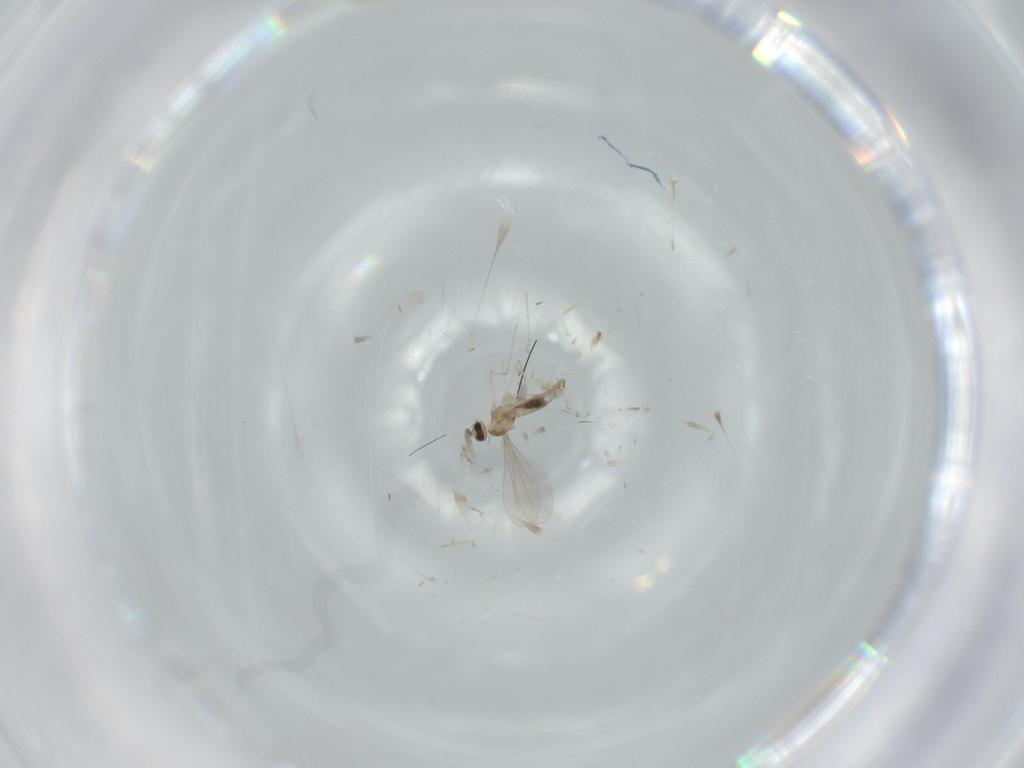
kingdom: Animalia
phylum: Arthropoda
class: Insecta
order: Diptera
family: Cecidomyiidae
